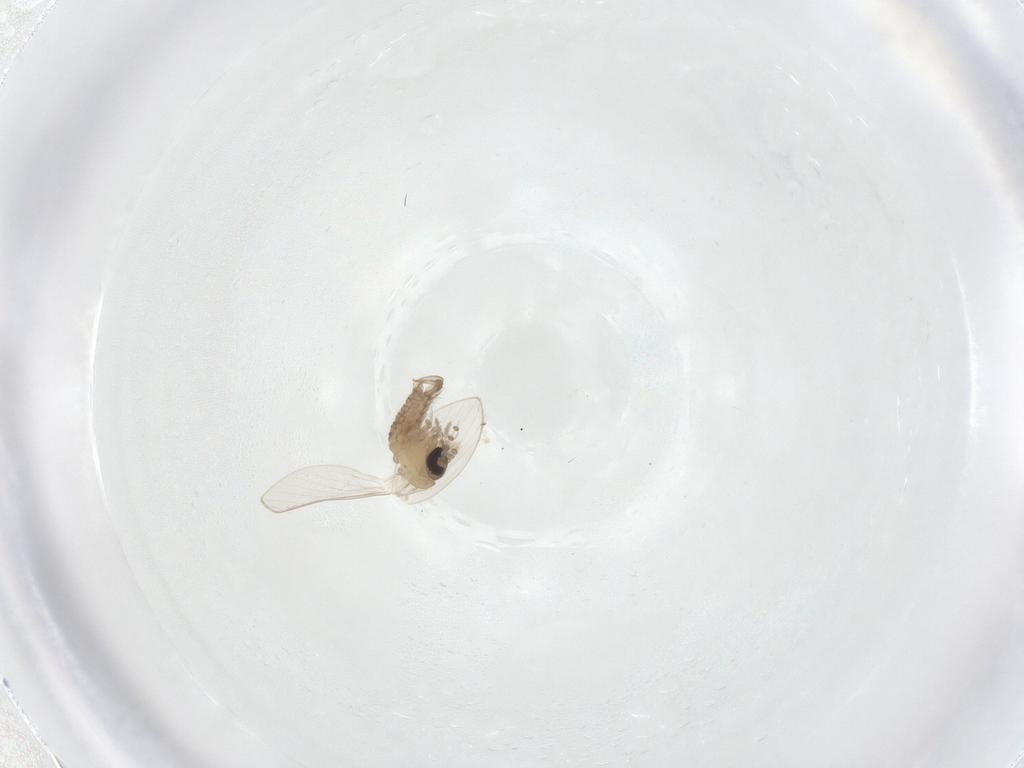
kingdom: Animalia
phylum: Arthropoda
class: Insecta
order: Diptera
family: Psychodidae
